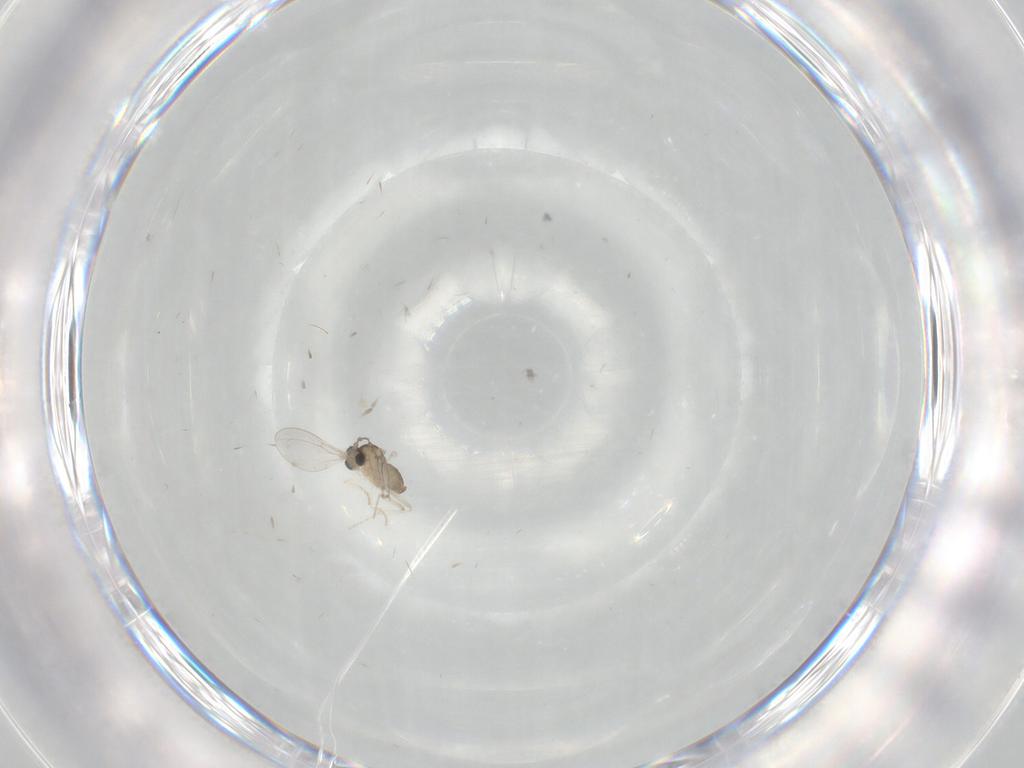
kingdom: Animalia
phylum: Arthropoda
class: Insecta
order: Diptera
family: Cecidomyiidae
